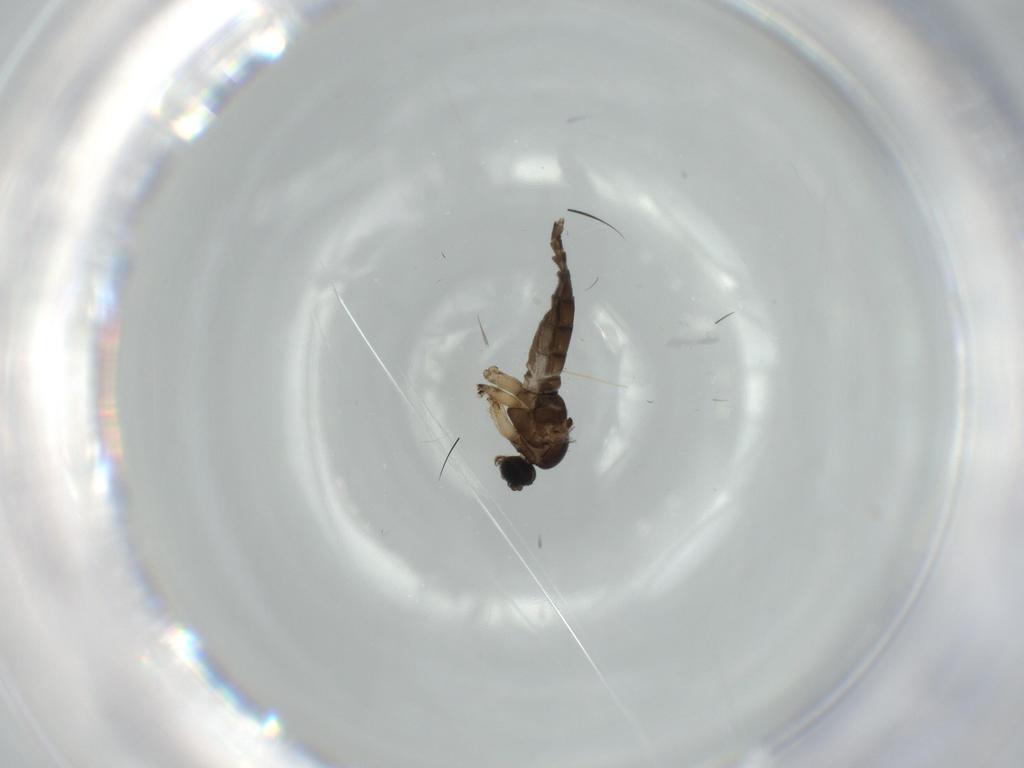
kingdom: Animalia
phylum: Arthropoda
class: Insecta
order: Diptera
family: Sciaridae
